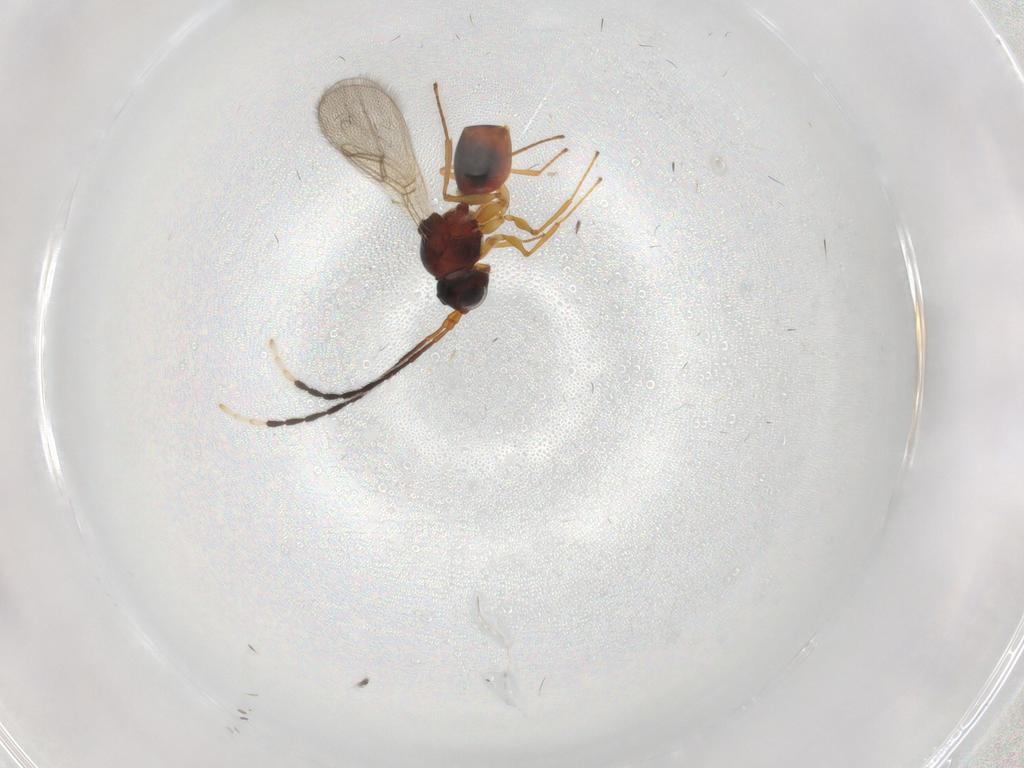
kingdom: Animalia
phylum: Arthropoda
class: Insecta
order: Hymenoptera
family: Figitidae
